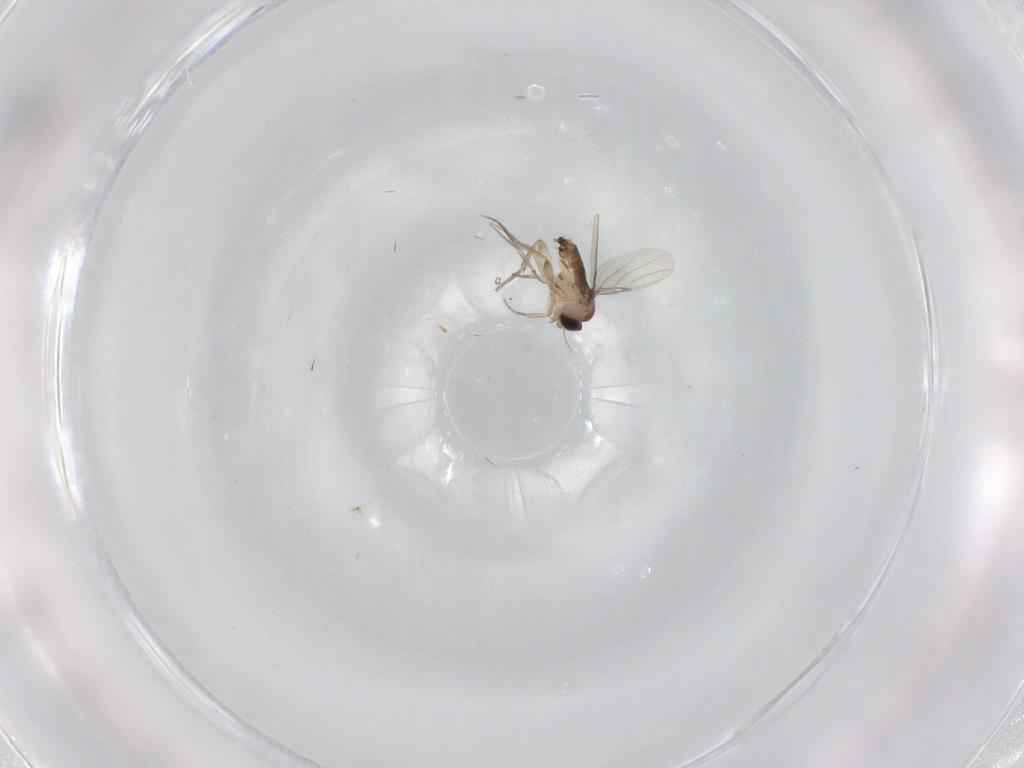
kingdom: Animalia
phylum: Arthropoda
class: Insecta
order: Diptera
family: Phoridae
